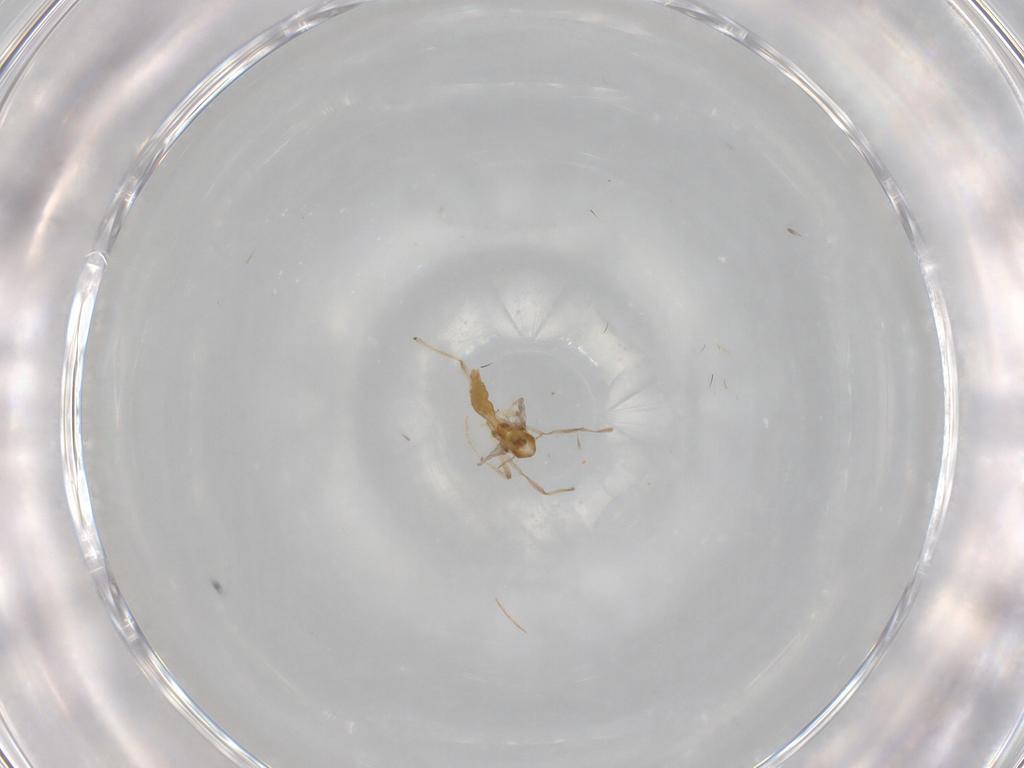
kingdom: Animalia
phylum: Arthropoda
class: Insecta
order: Diptera
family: Chironomidae
